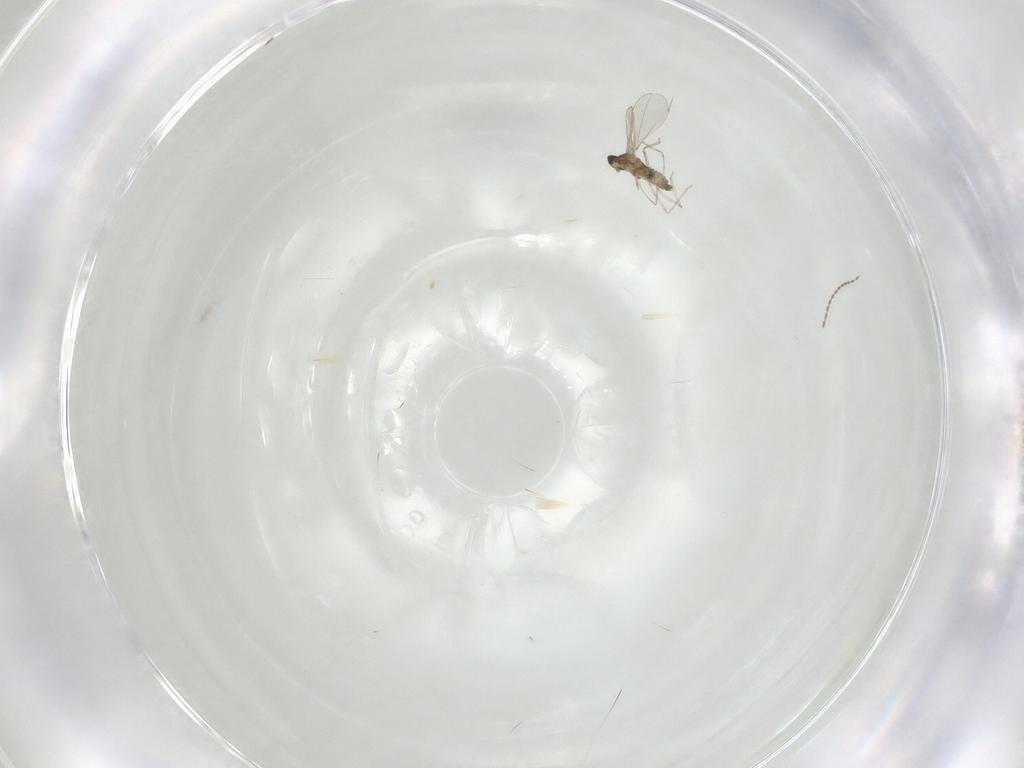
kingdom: Animalia
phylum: Arthropoda
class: Insecta
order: Diptera
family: Cecidomyiidae
